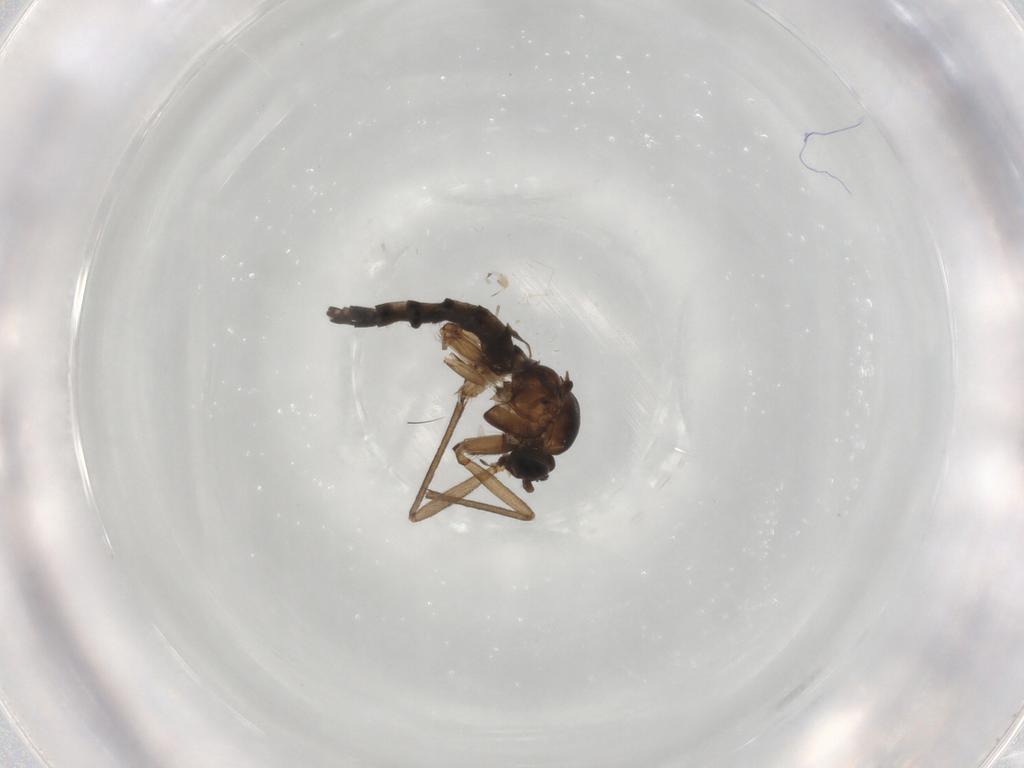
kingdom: Animalia
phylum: Arthropoda
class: Insecta
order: Diptera
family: Sciaridae
